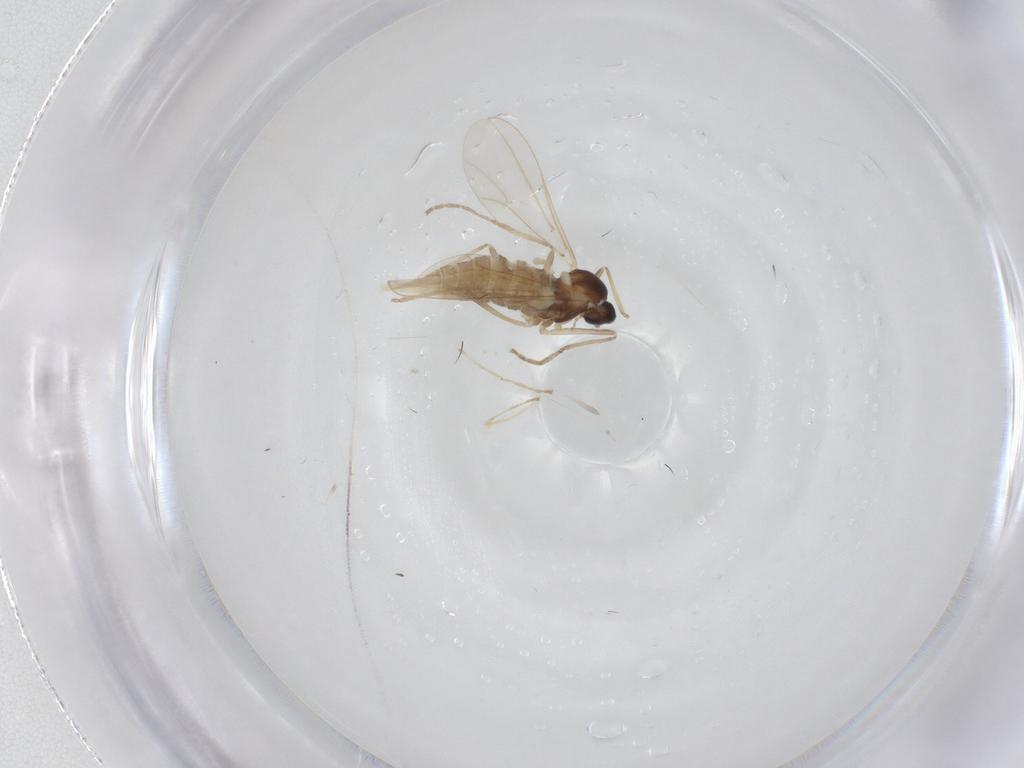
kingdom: Animalia
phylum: Arthropoda
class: Insecta
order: Diptera
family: Cecidomyiidae
